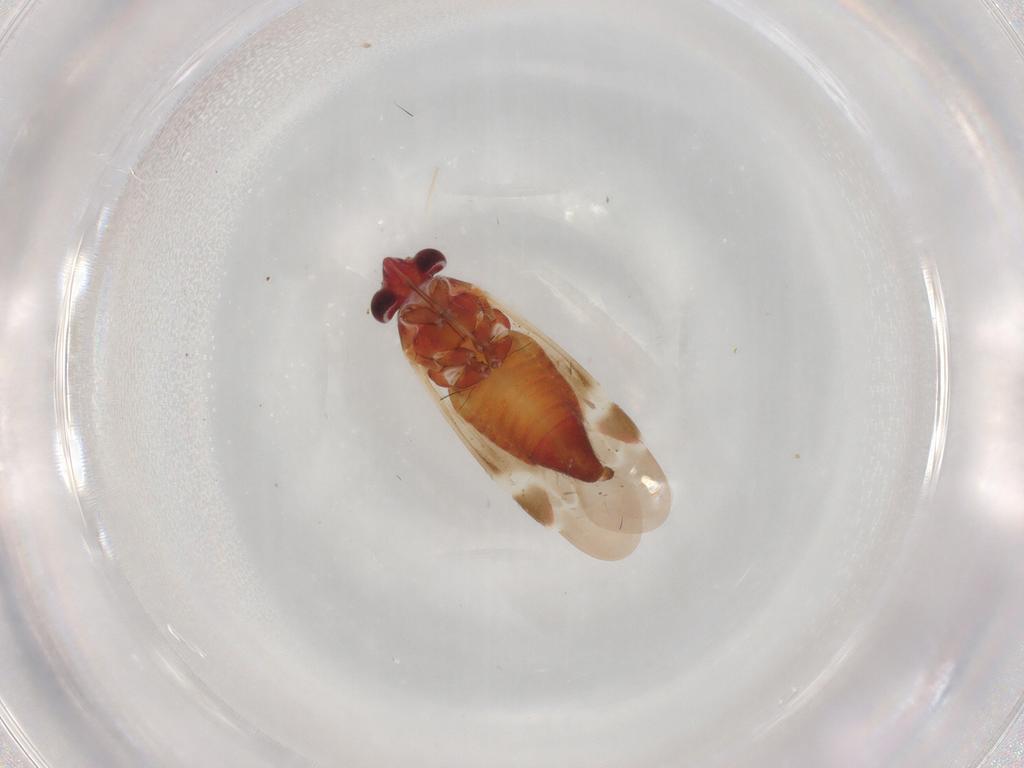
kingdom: Animalia
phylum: Arthropoda
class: Insecta
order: Hemiptera
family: Miridae
